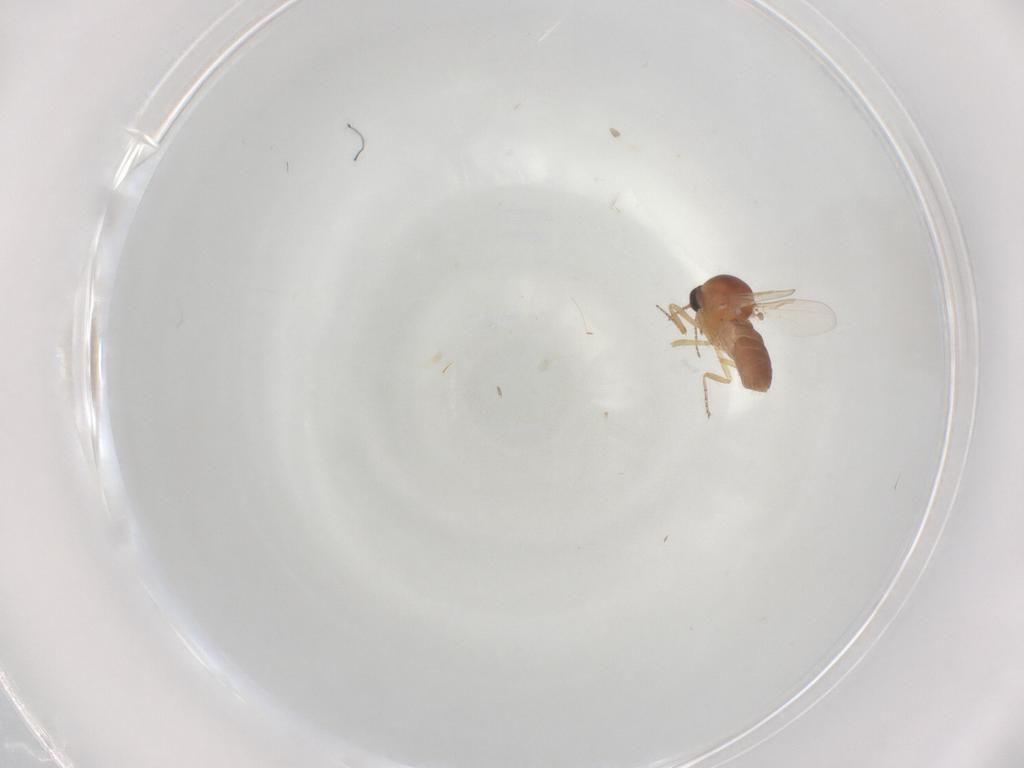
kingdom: Animalia
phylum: Arthropoda
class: Insecta
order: Diptera
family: Psychodidae
